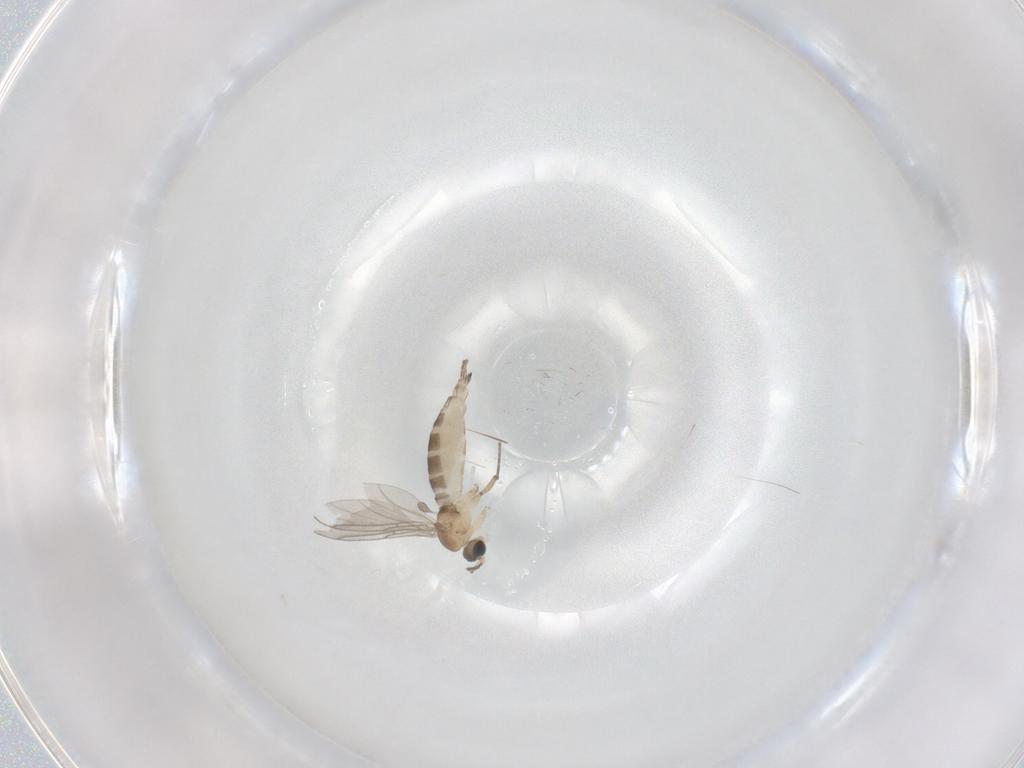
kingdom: Animalia
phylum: Arthropoda
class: Insecta
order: Diptera
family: Sciaridae
